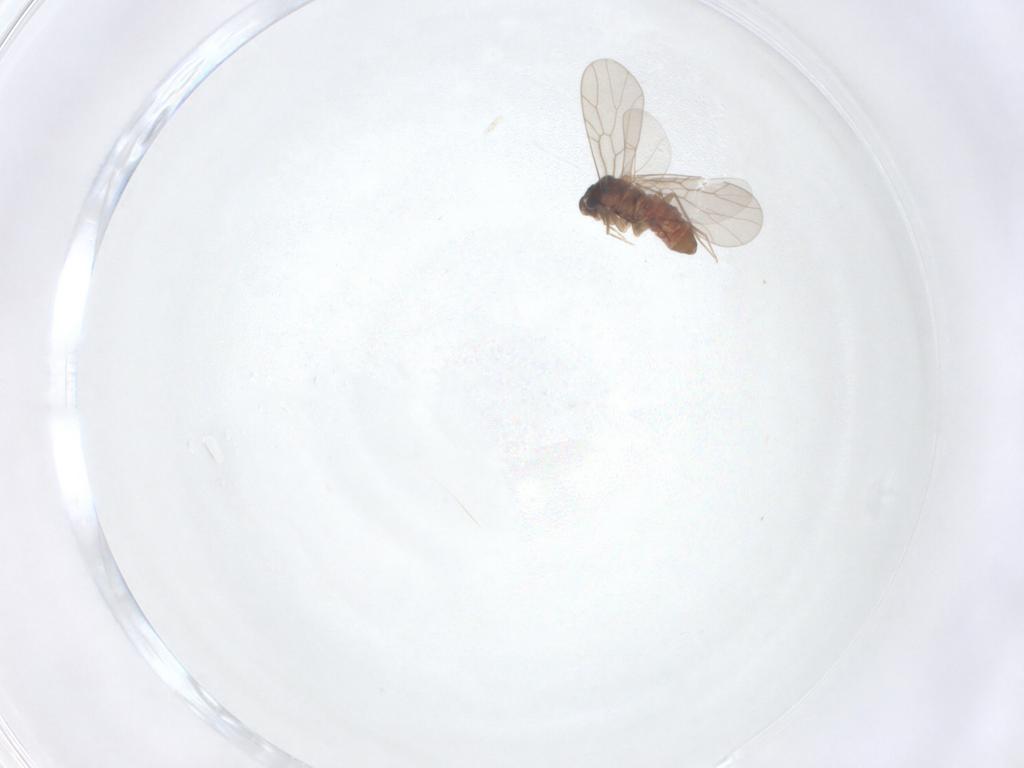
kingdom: Animalia
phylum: Arthropoda
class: Insecta
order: Psocodea
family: Lepidopsocidae
